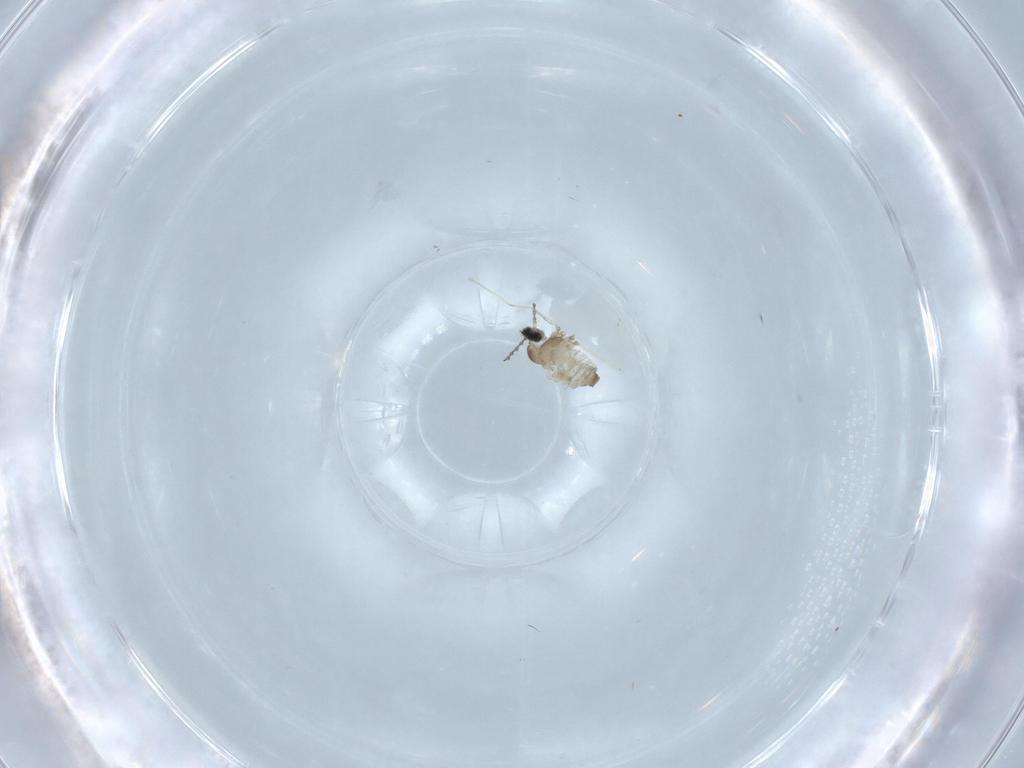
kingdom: Animalia
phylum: Arthropoda
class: Insecta
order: Diptera
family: Cecidomyiidae
